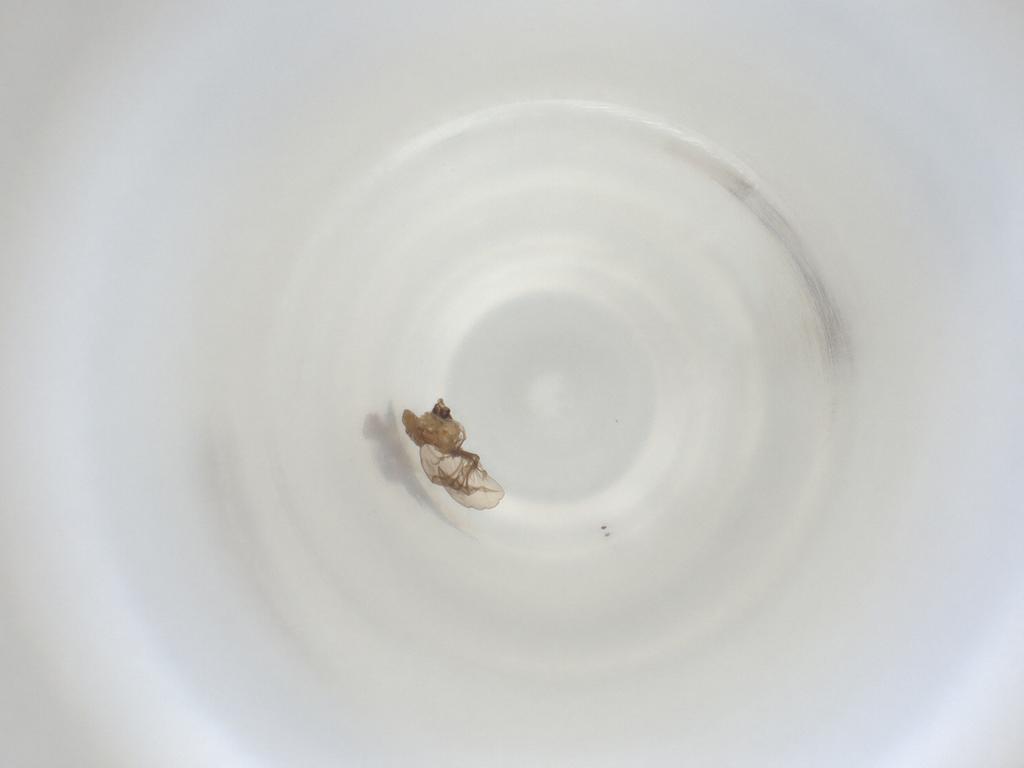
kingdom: Animalia
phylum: Arthropoda
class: Insecta
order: Diptera
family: Cecidomyiidae
